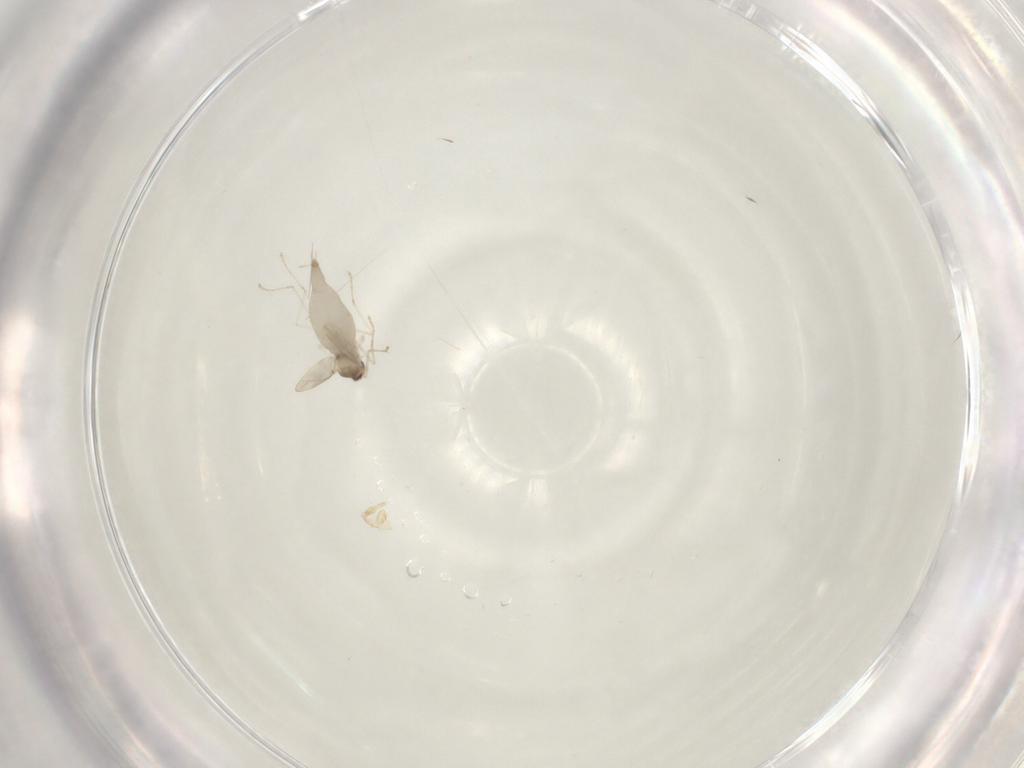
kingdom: Animalia
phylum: Arthropoda
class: Insecta
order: Diptera
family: Cecidomyiidae
